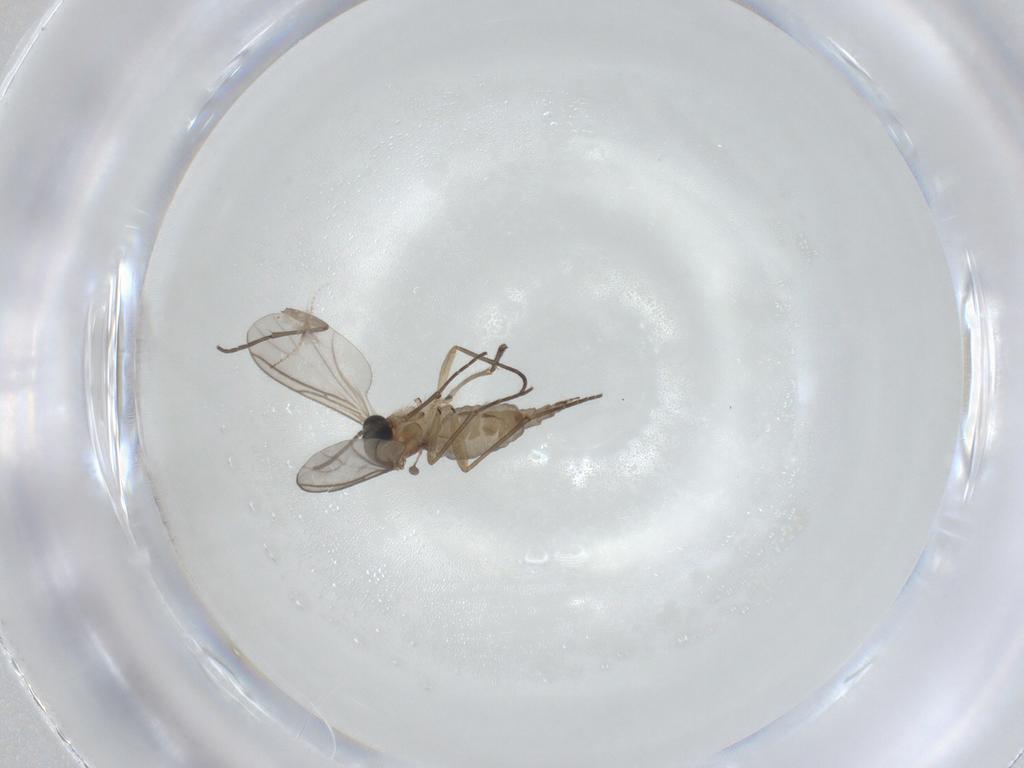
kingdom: Animalia
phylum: Arthropoda
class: Insecta
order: Diptera
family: Sciaridae
